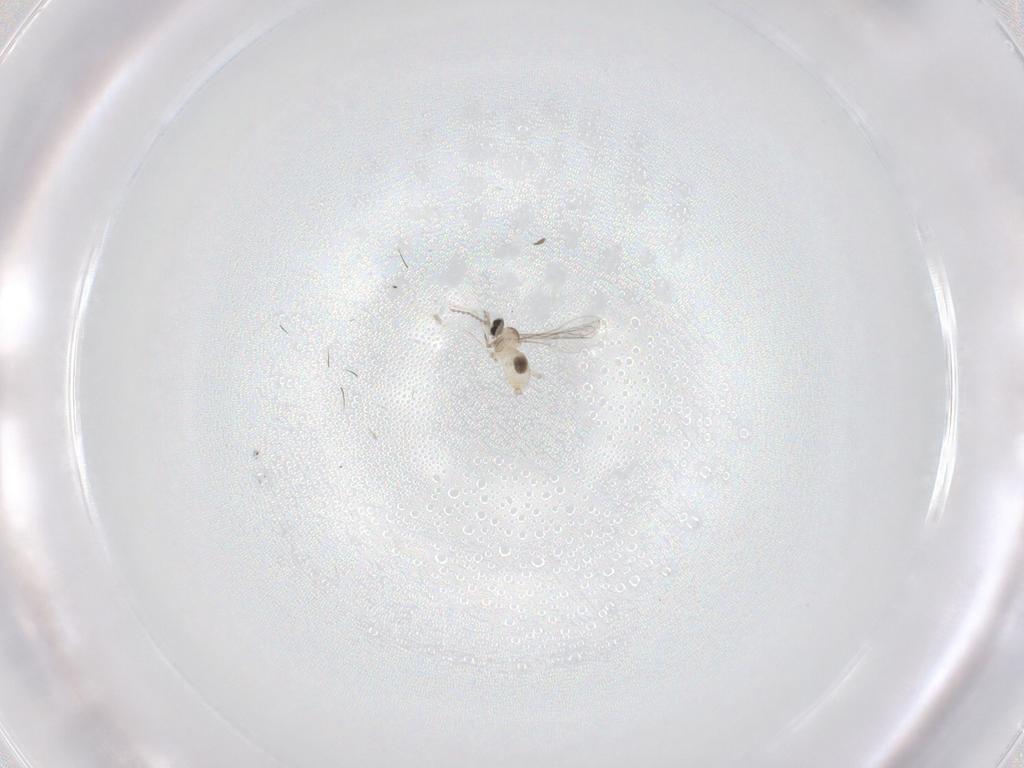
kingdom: Animalia
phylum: Arthropoda
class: Insecta
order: Diptera
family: Cecidomyiidae
